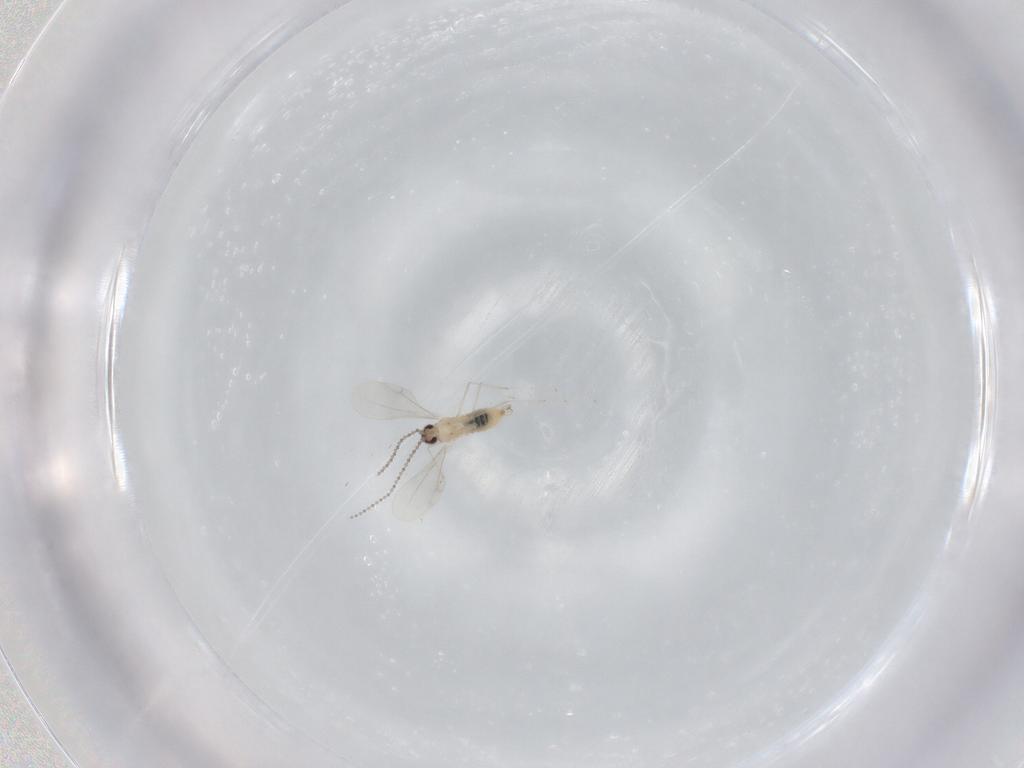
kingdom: Animalia
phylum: Arthropoda
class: Insecta
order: Diptera
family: Cecidomyiidae
